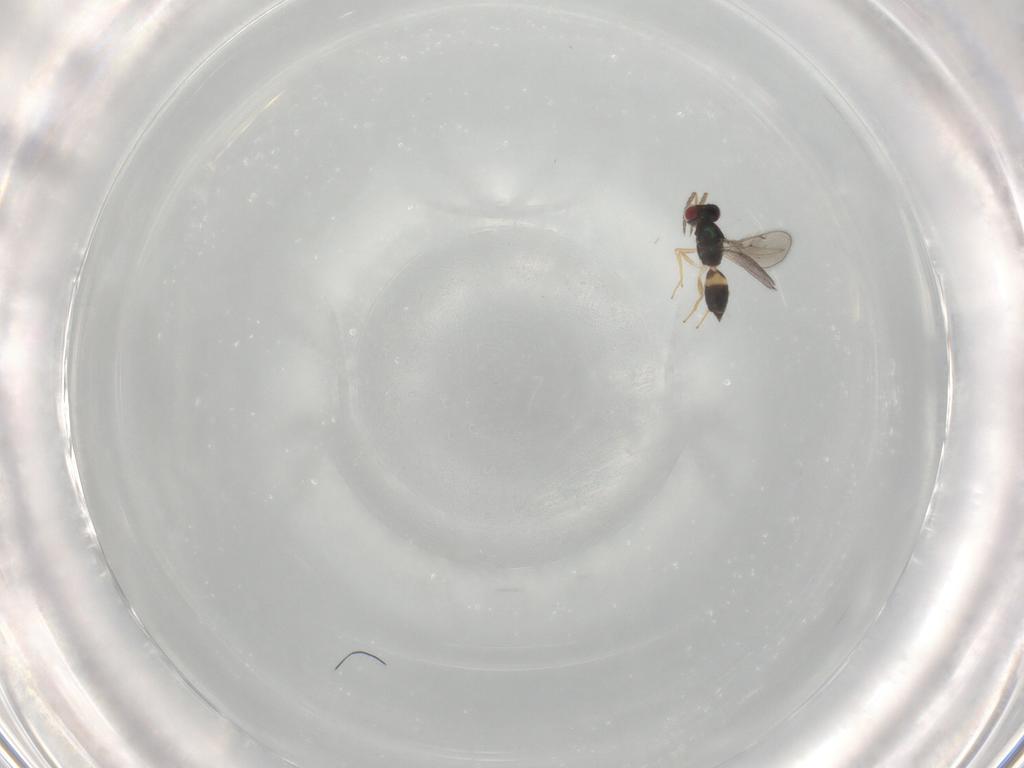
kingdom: Animalia
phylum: Arthropoda
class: Insecta
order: Hymenoptera
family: Eulophidae
